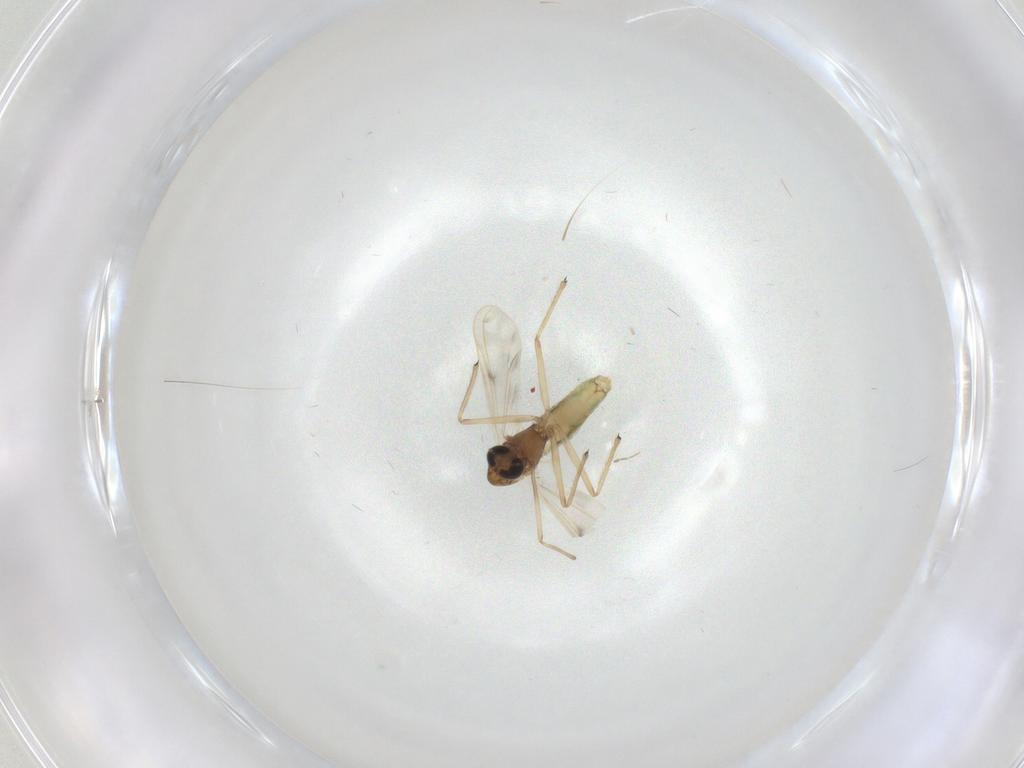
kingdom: Animalia
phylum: Arthropoda
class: Insecta
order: Diptera
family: Chironomidae
